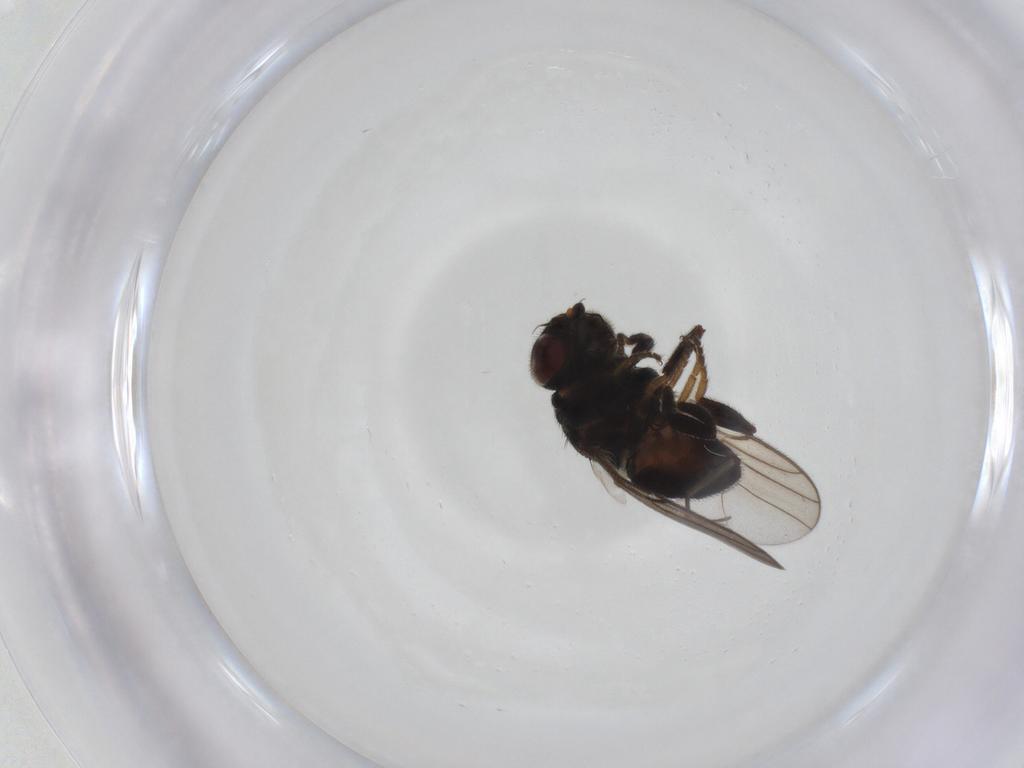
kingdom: Animalia
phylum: Arthropoda
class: Insecta
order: Diptera
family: Chloropidae
